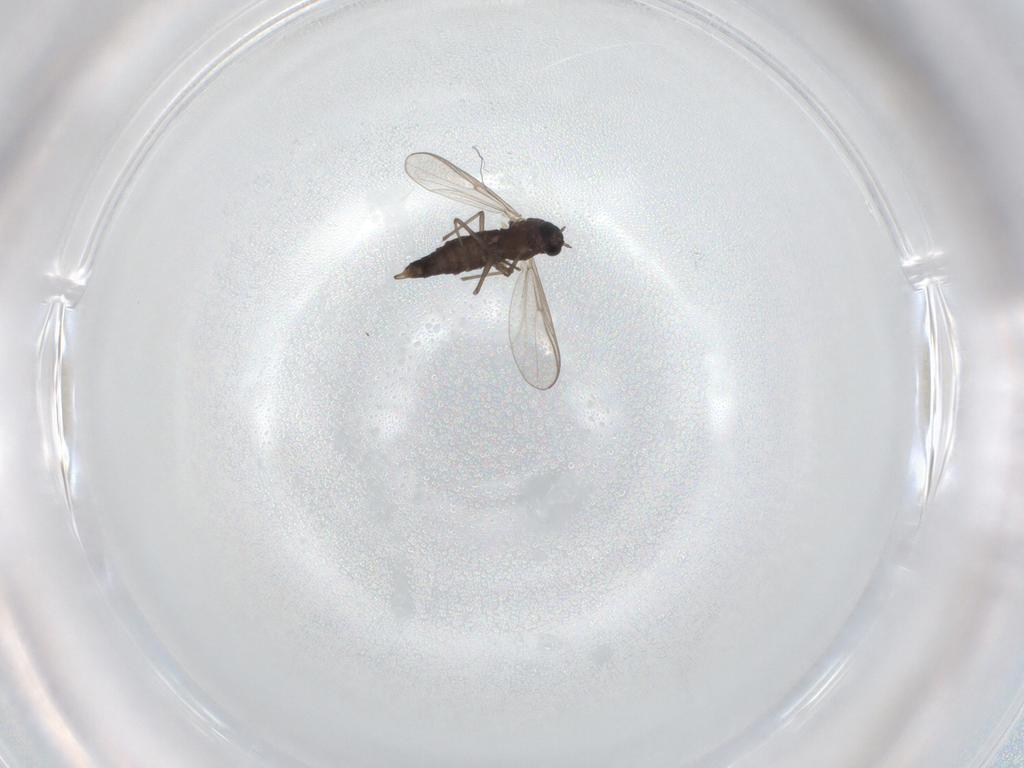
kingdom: Animalia
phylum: Arthropoda
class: Insecta
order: Diptera
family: Chironomidae
